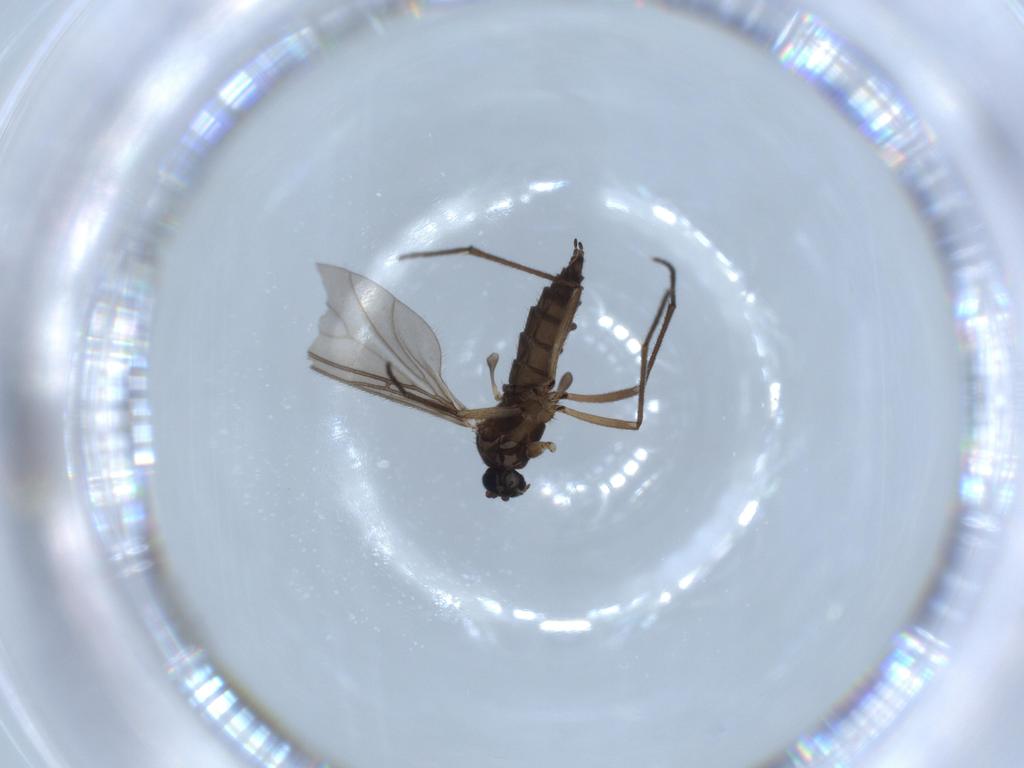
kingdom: Animalia
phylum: Arthropoda
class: Insecta
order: Diptera
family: Sciaridae
